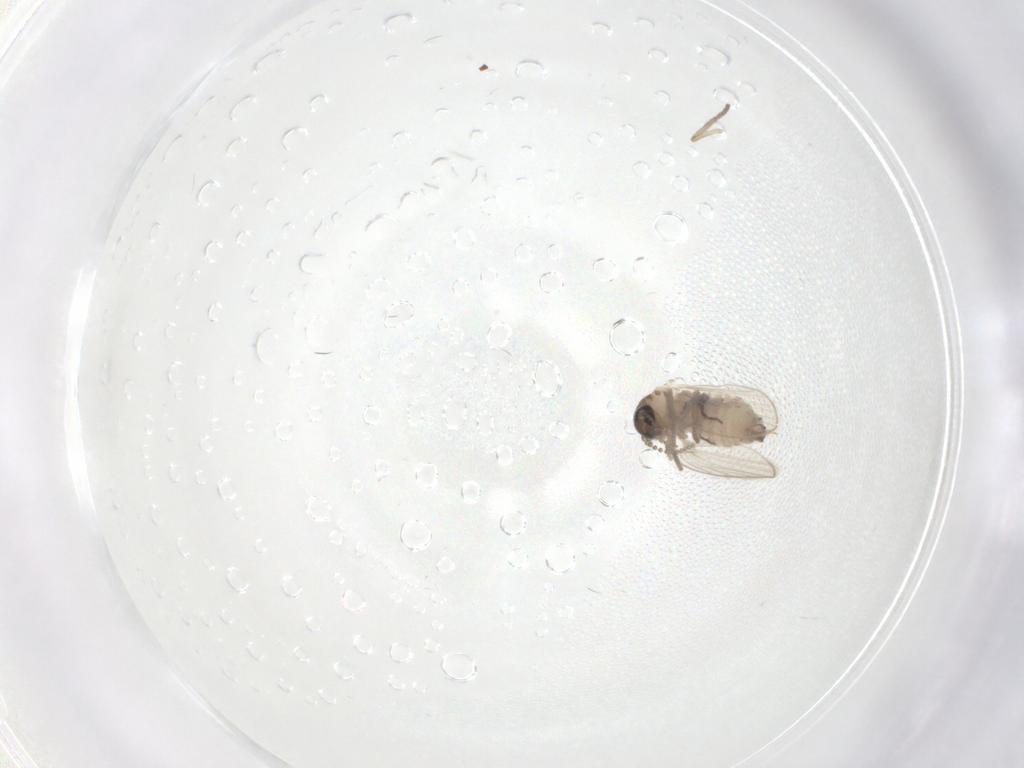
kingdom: Animalia
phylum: Arthropoda
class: Insecta
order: Diptera
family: Psychodidae
